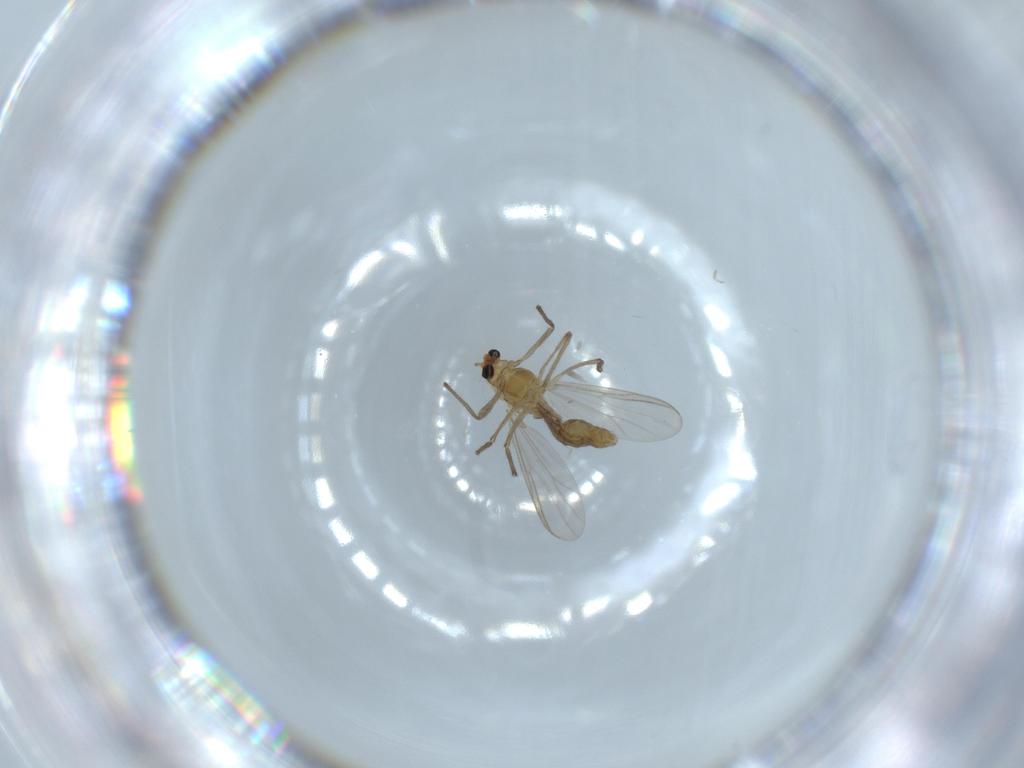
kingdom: Animalia
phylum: Arthropoda
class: Insecta
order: Diptera
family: Chironomidae
